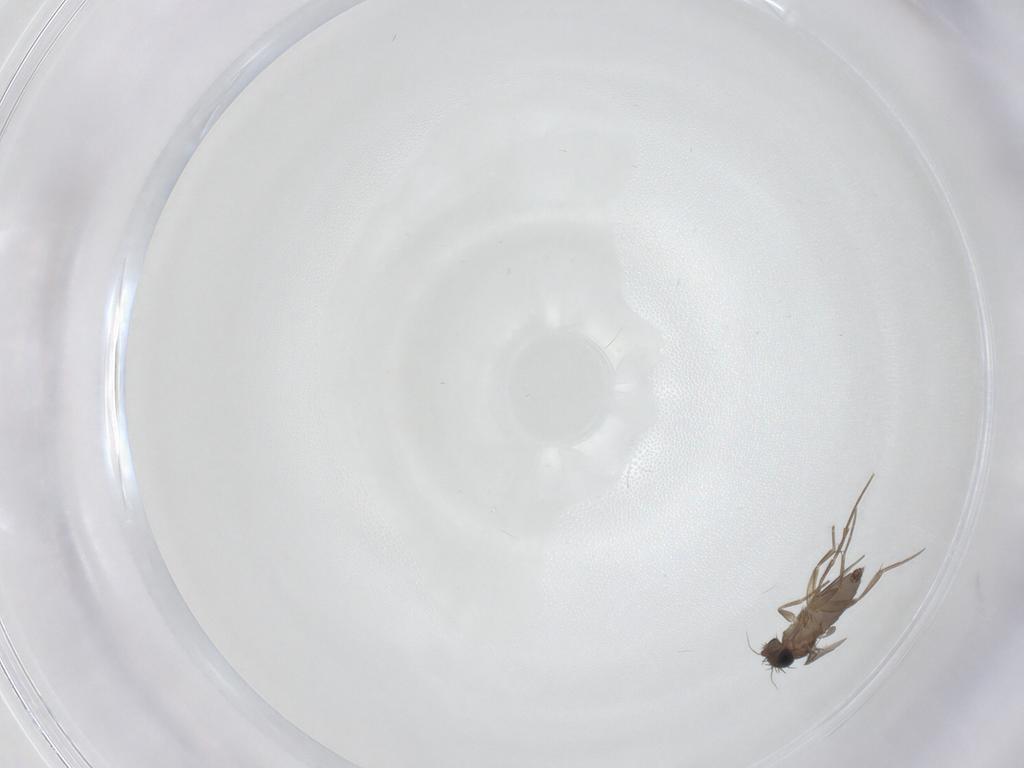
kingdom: Animalia
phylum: Arthropoda
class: Insecta
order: Diptera
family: Phoridae
